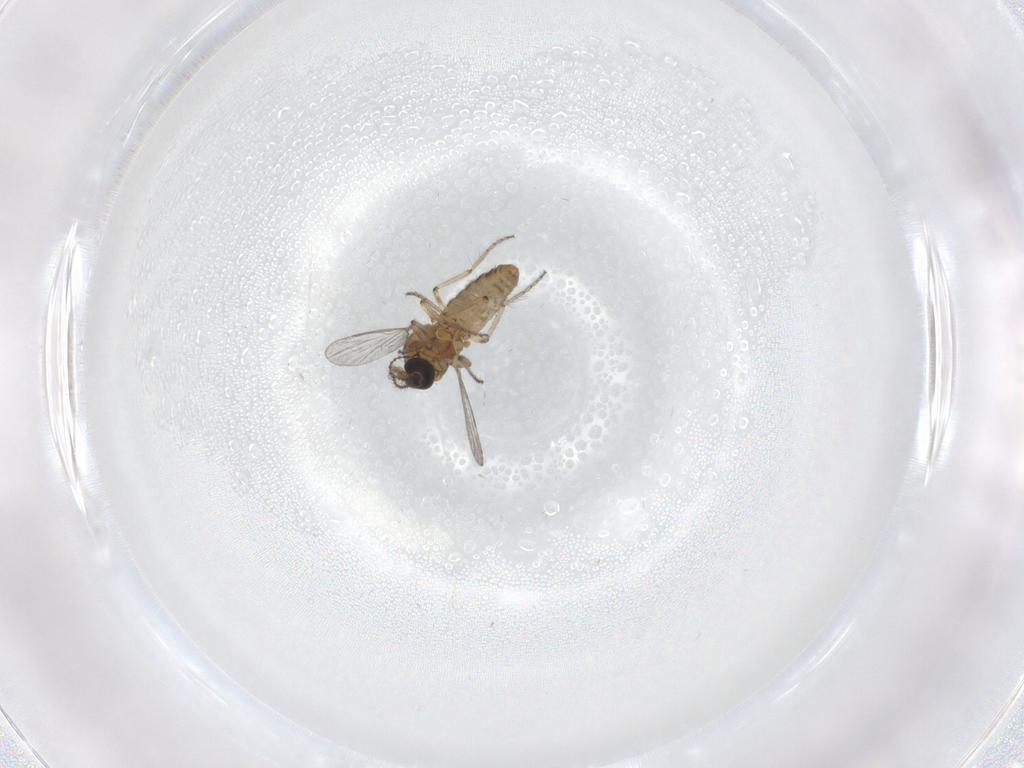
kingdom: Animalia
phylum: Arthropoda
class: Insecta
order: Diptera
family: Ceratopogonidae
